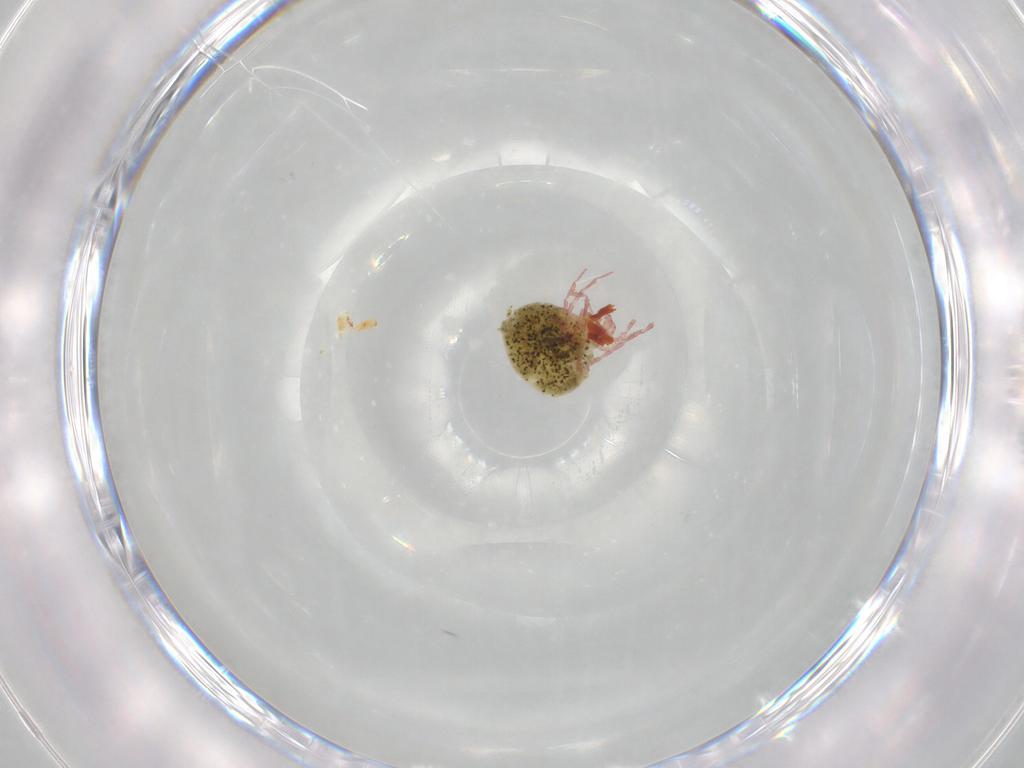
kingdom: Animalia
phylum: Arthropoda
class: Arachnida
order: Trombidiformes
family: Pionidae
